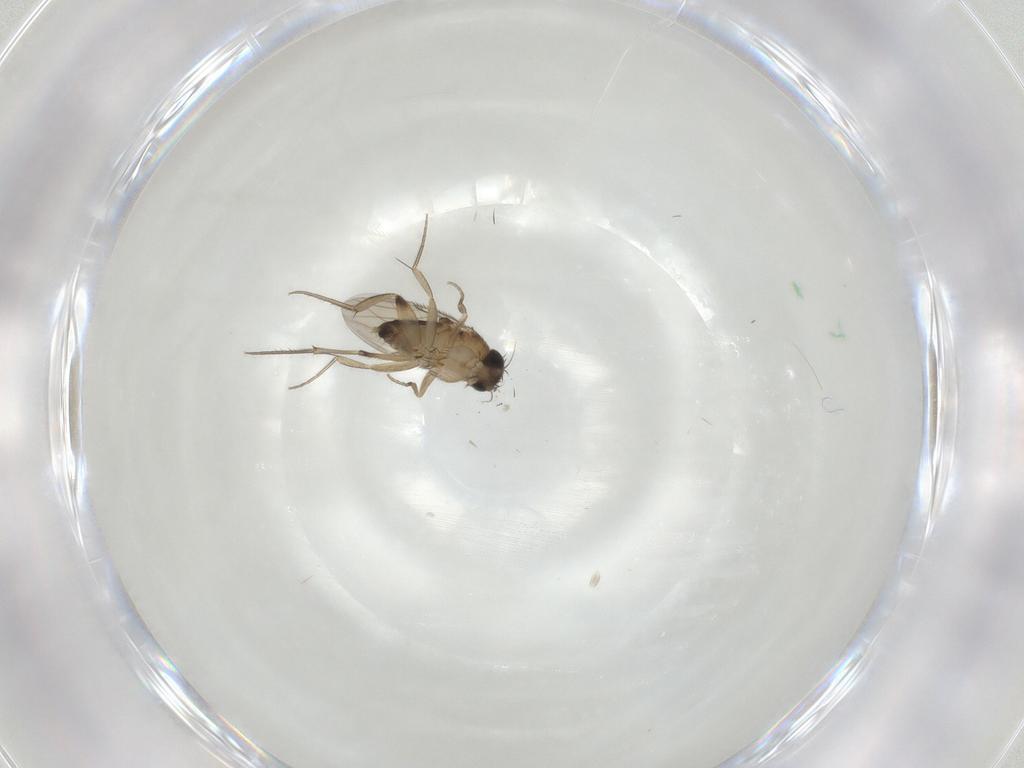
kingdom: Animalia
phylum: Arthropoda
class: Insecta
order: Diptera
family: Phoridae
